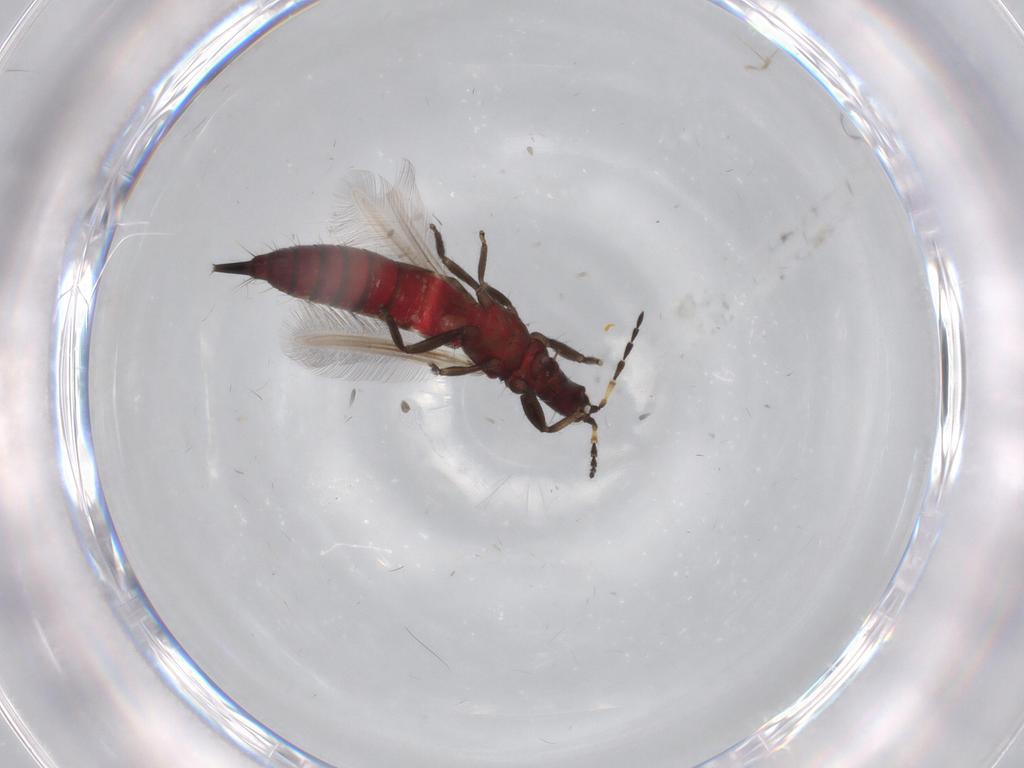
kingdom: Animalia
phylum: Arthropoda
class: Insecta
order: Thysanoptera
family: Phlaeothripidae
